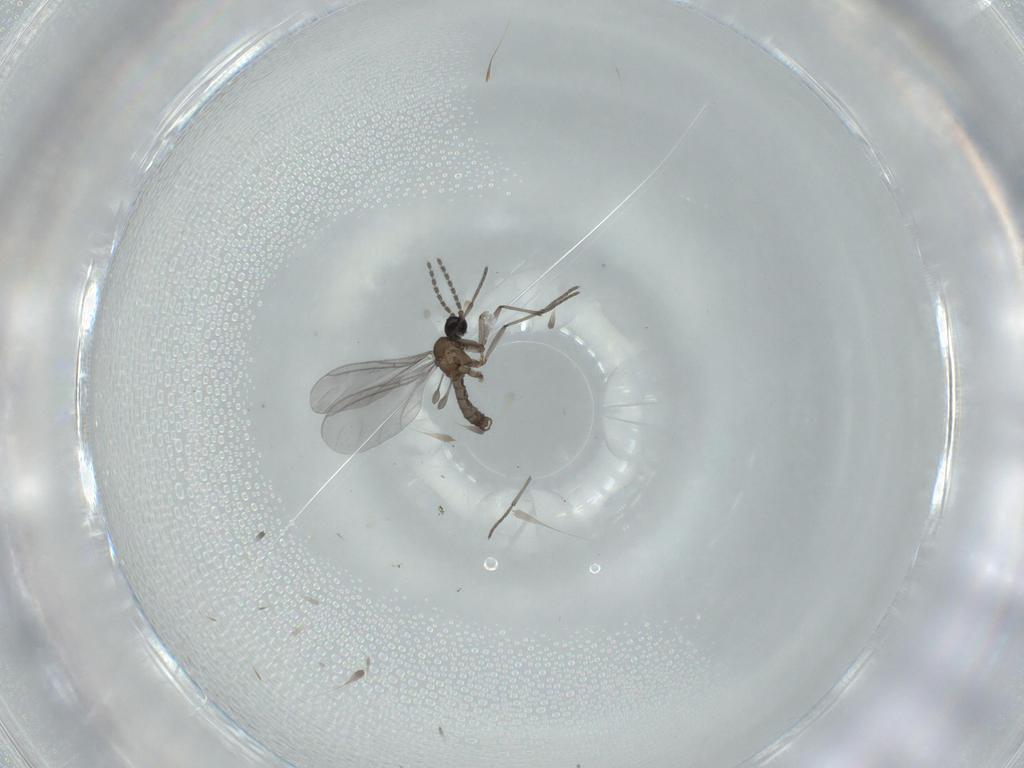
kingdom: Animalia
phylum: Arthropoda
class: Insecta
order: Diptera
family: Sciaridae
